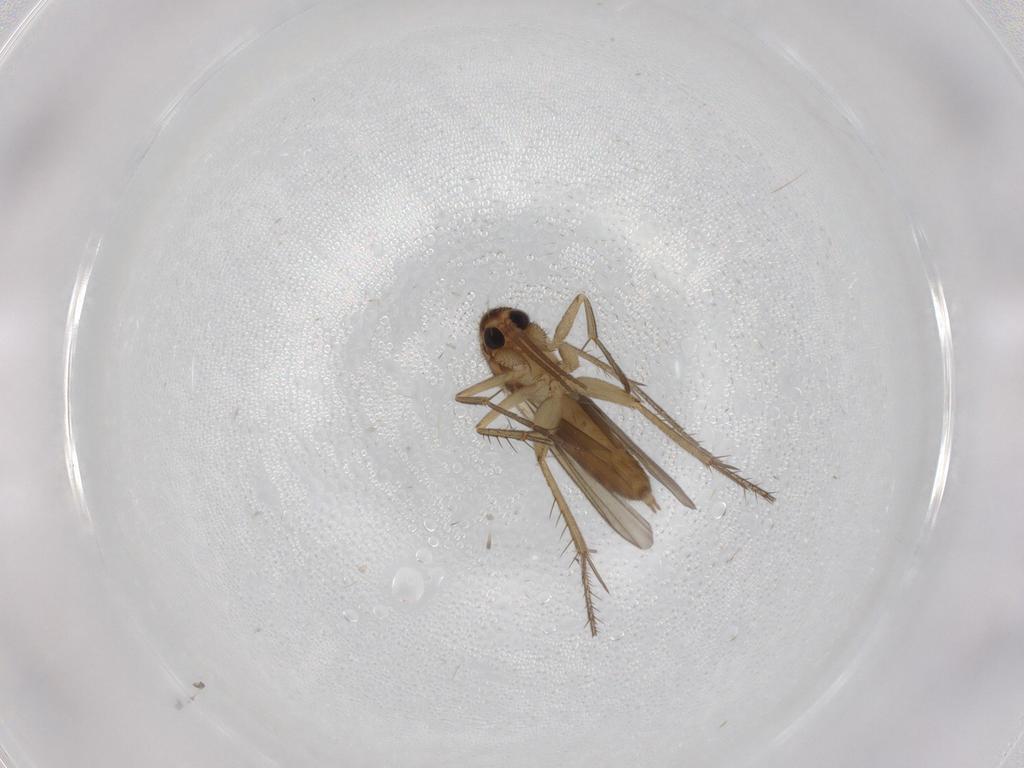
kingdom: Animalia
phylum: Arthropoda
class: Insecta
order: Diptera
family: Mycetophilidae
